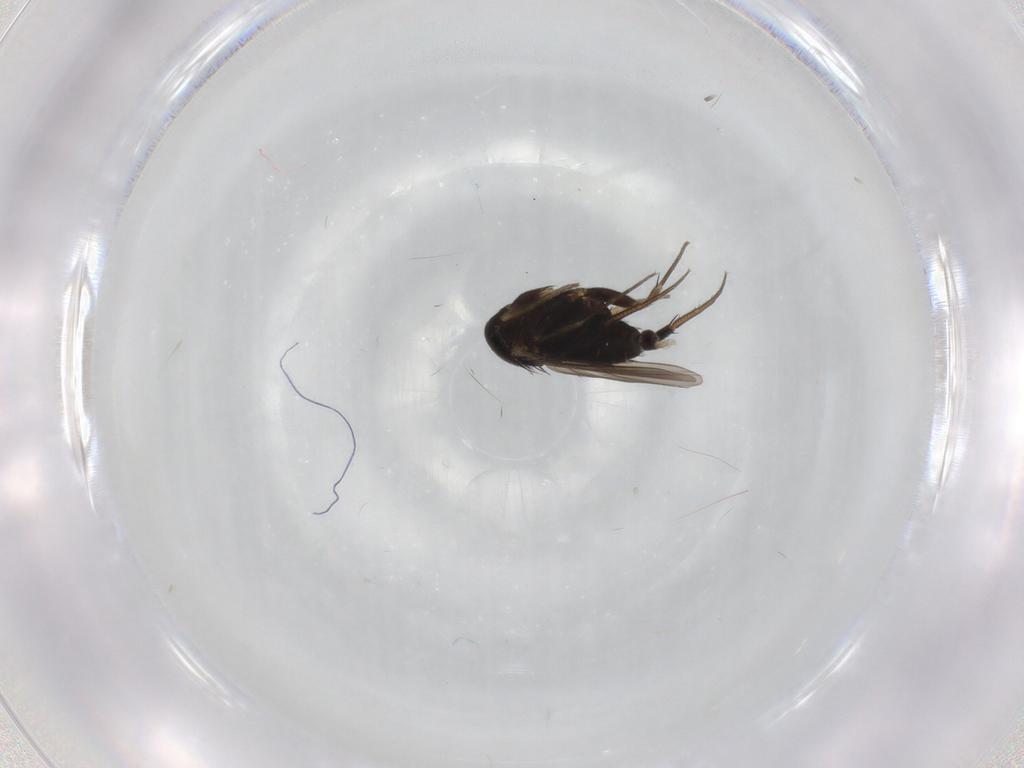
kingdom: Animalia
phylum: Arthropoda
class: Insecta
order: Diptera
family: Phoridae
